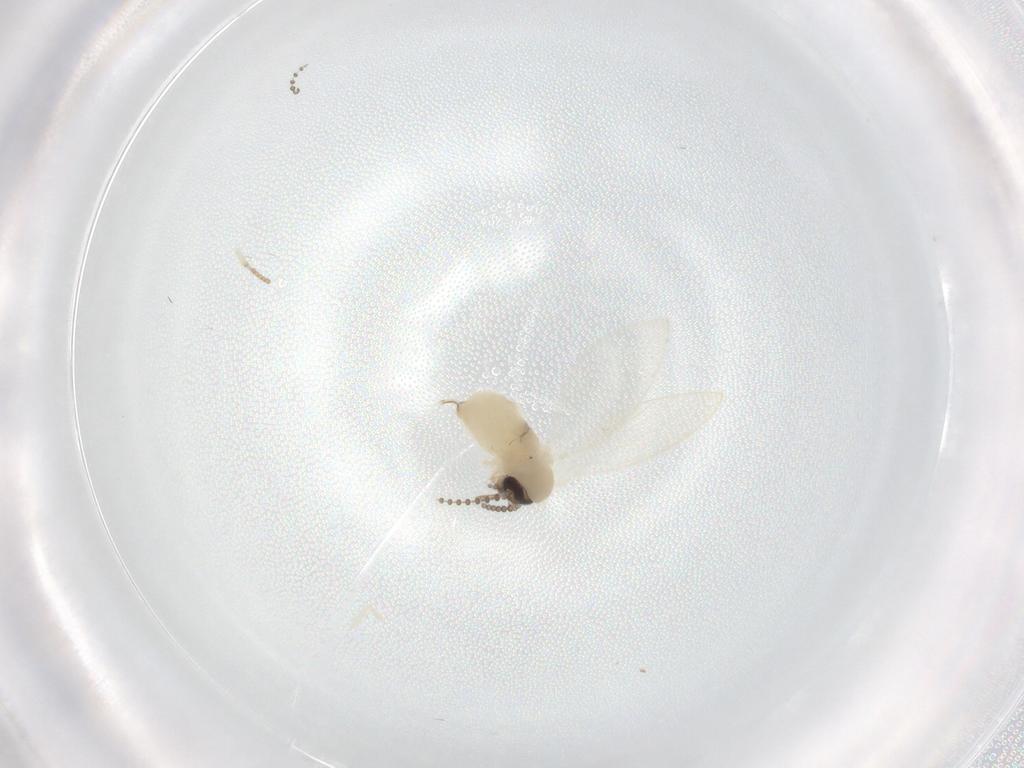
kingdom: Animalia
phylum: Arthropoda
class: Insecta
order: Diptera
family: Psychodidae
